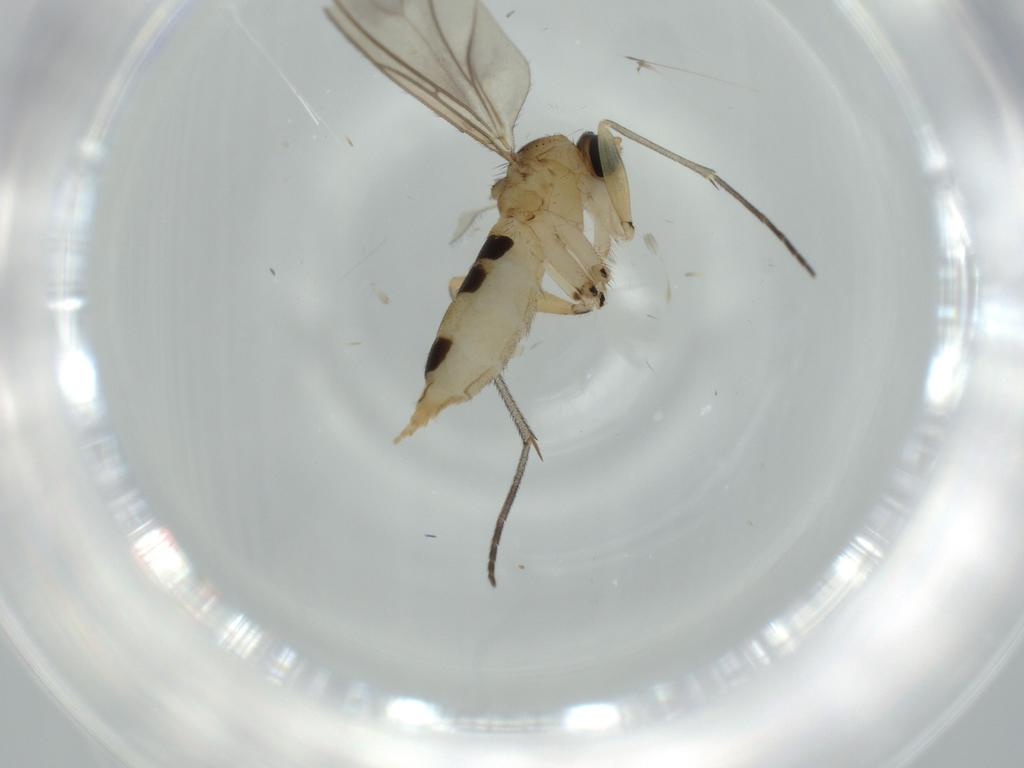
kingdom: Animalia
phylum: Arthropoda
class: Insecta
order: Diptera
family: Sciaridae
